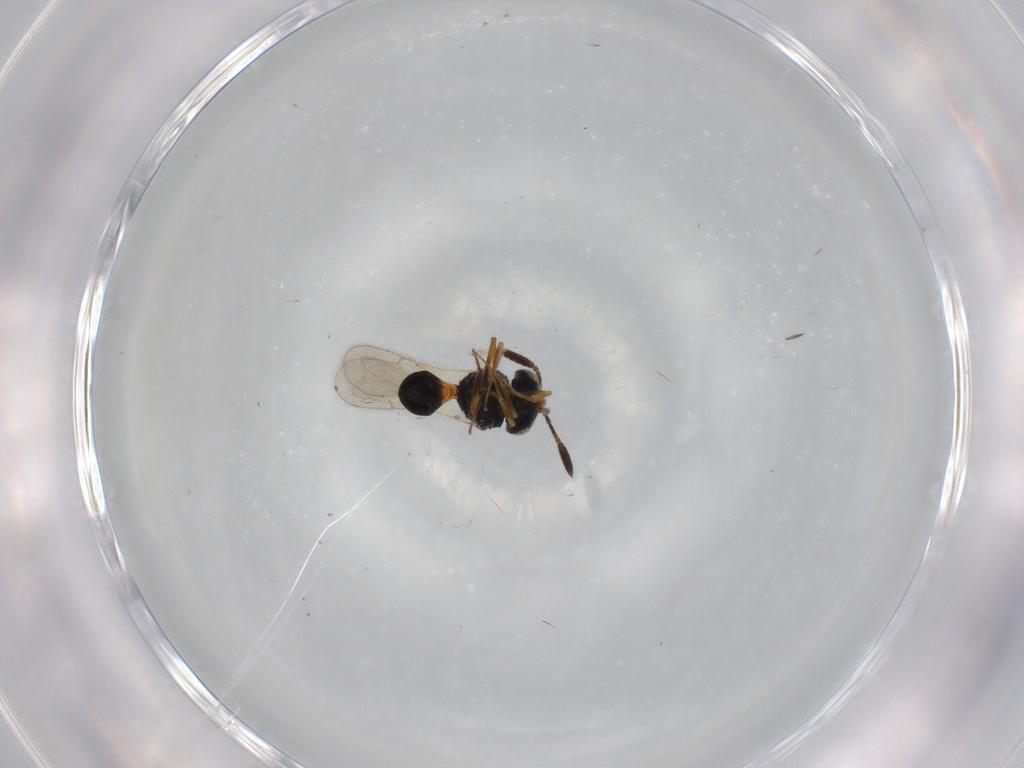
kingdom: Animalia
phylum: Arthropoda
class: Insecta
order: Hymenoptera
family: Scelionidae
